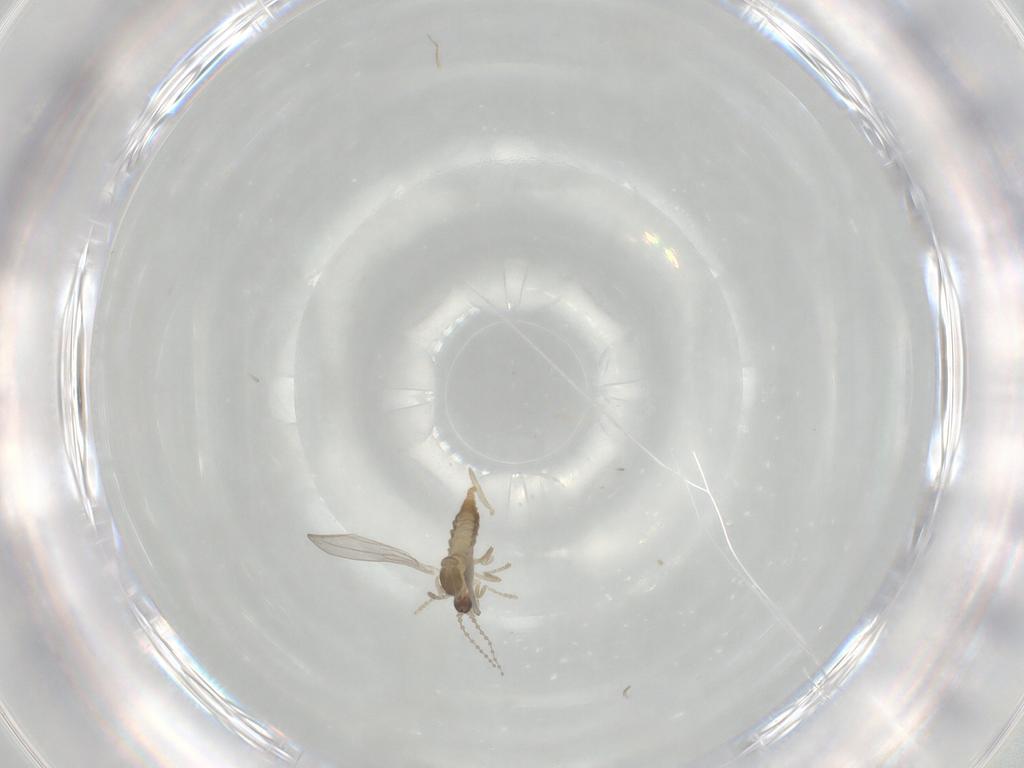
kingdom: Animalia
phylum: Arthropoda
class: Insecta
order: Diptera
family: Cecidomyiidae
